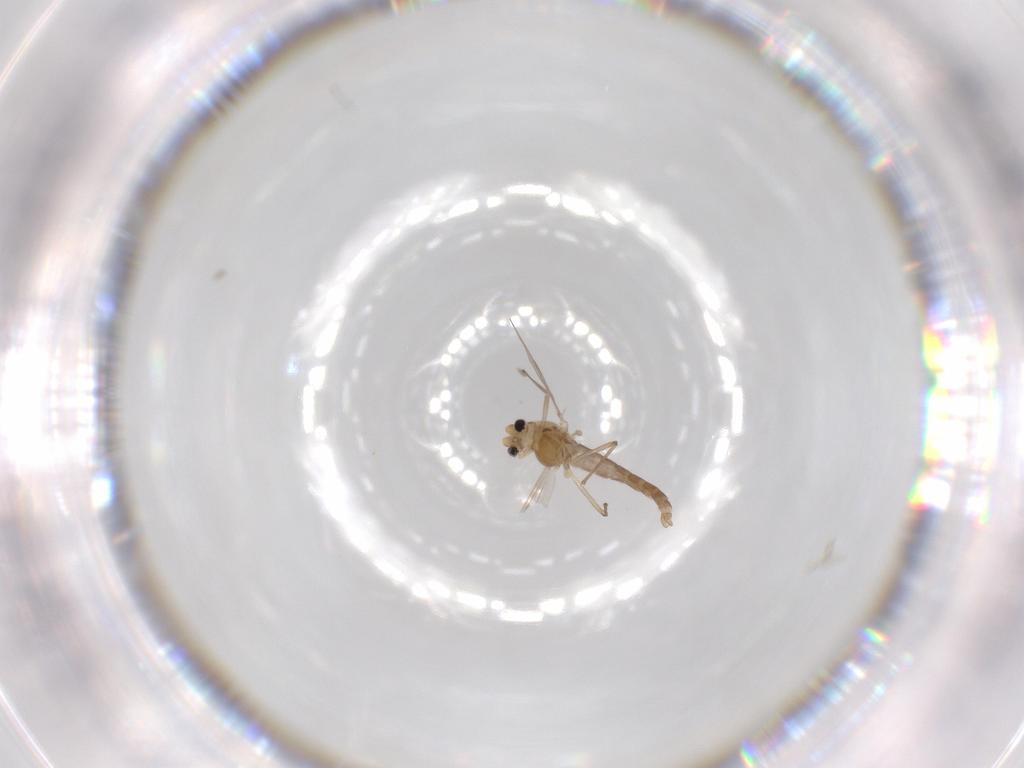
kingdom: Animalia
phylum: Arthropoda
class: Insecta
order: Diptera
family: Chironomidae
